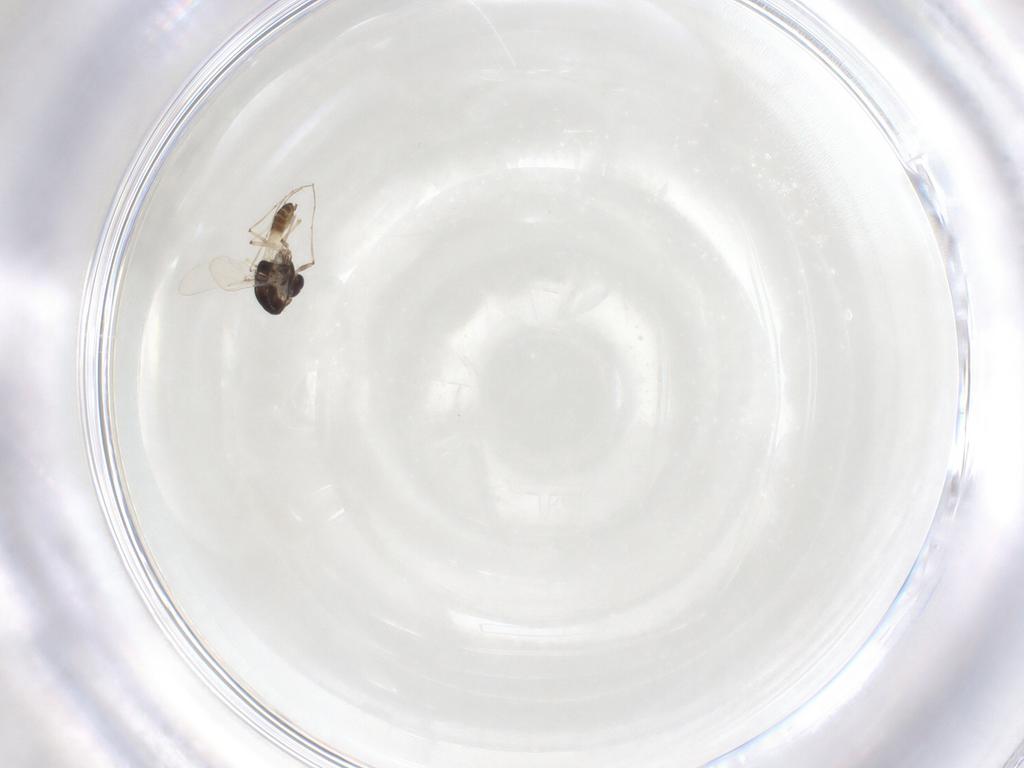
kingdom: Animalia
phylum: Arthropoda
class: Insecta
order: Diptera
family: Chironomidae
